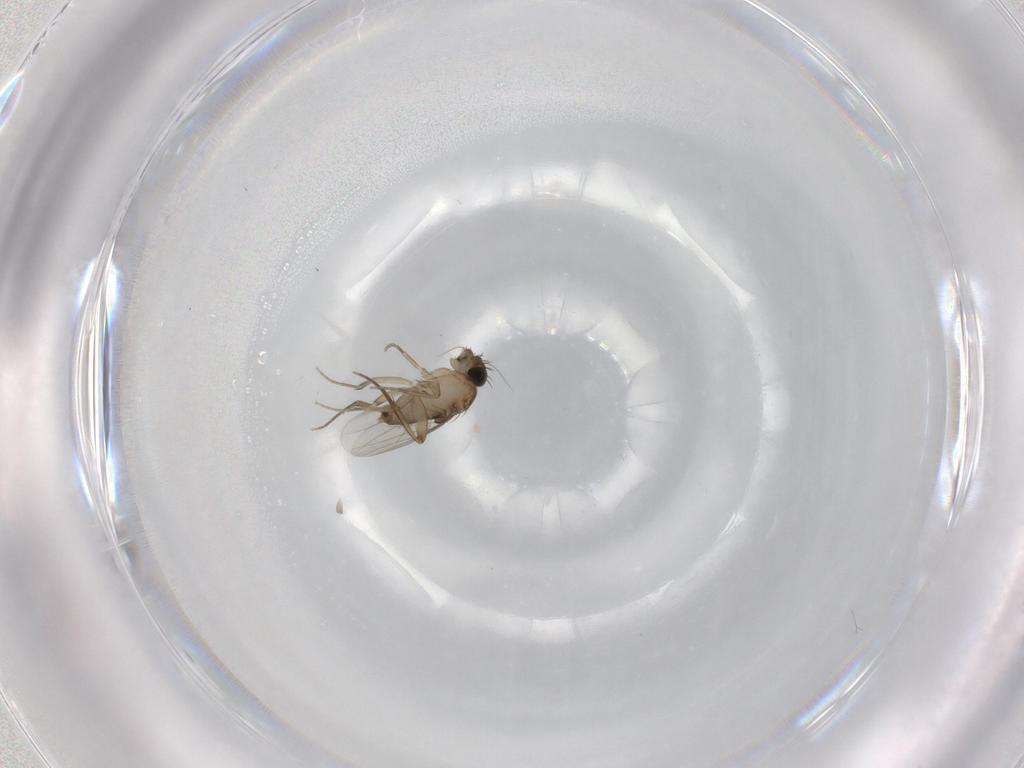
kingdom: Animalia
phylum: Arthropoda
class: Insecta
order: Diptera
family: Phoridae
